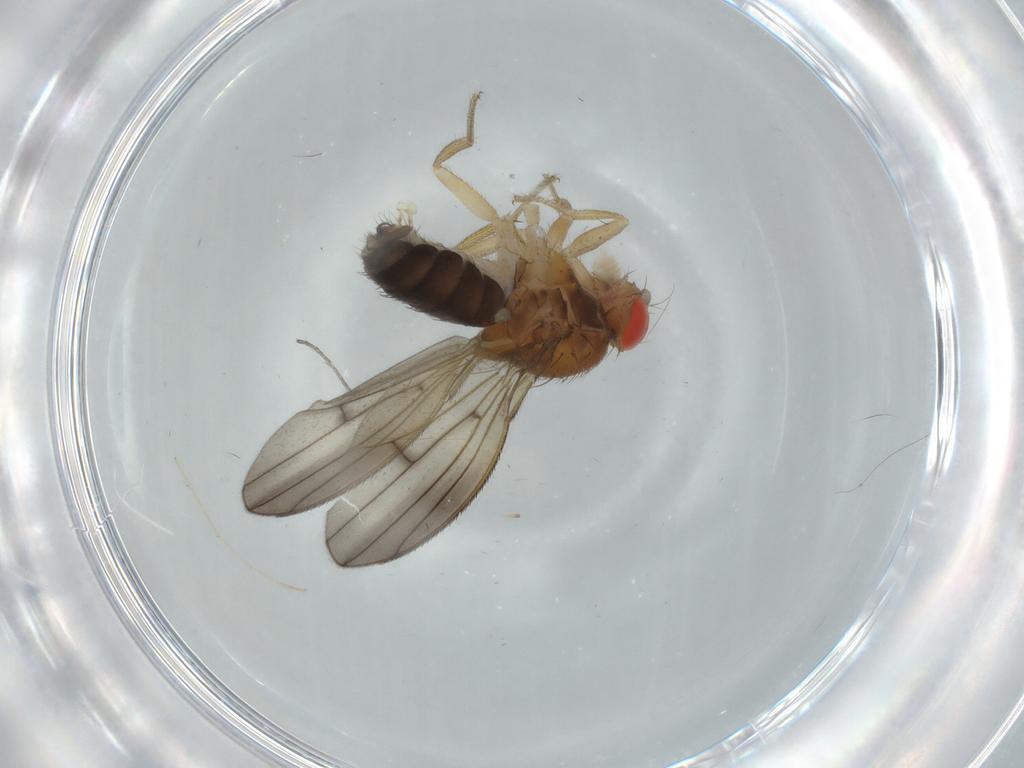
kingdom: Animalia
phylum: Arthropoda
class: Insecta
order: Diptera
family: Drosophilidae
